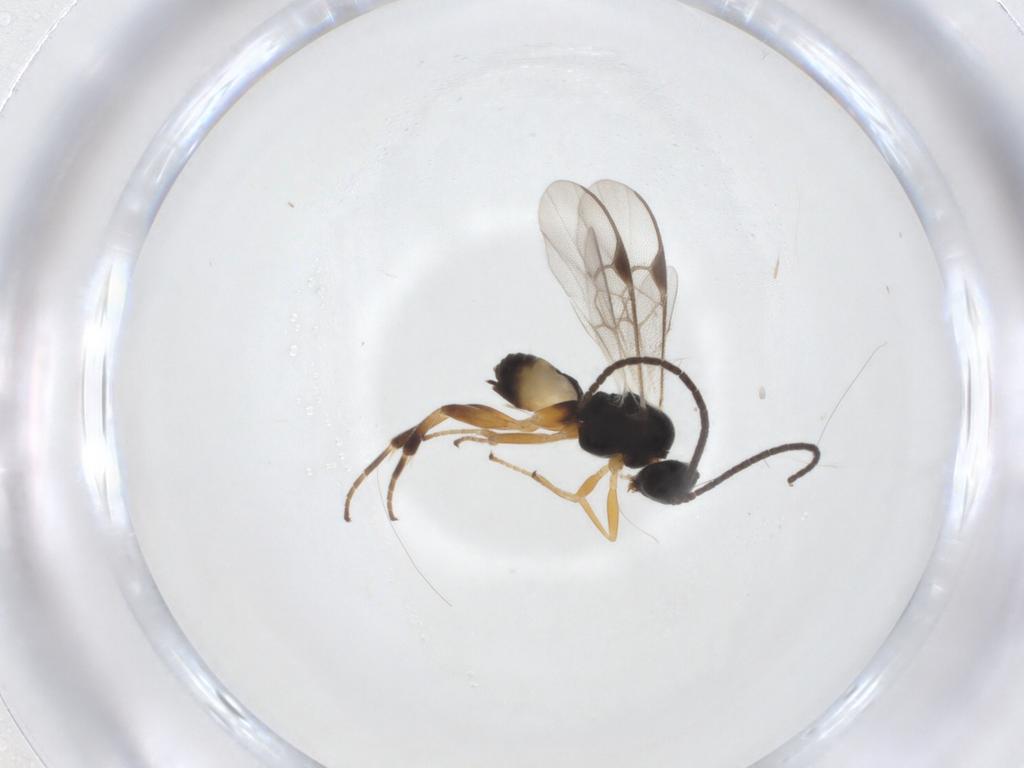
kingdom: Animalia
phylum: Arthropoda
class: Insecta
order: Hymenoptera
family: Braconidae
